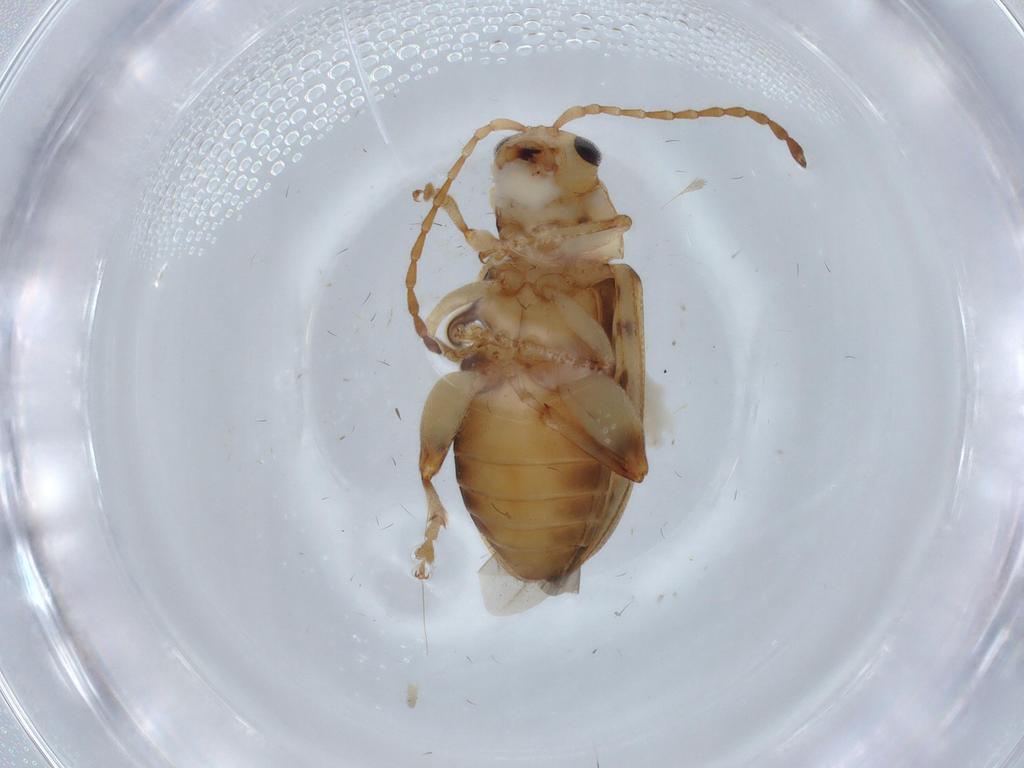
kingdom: Animalia
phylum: Arthropoda
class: Insecta
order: Coleoptera
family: Chrysomelidae
